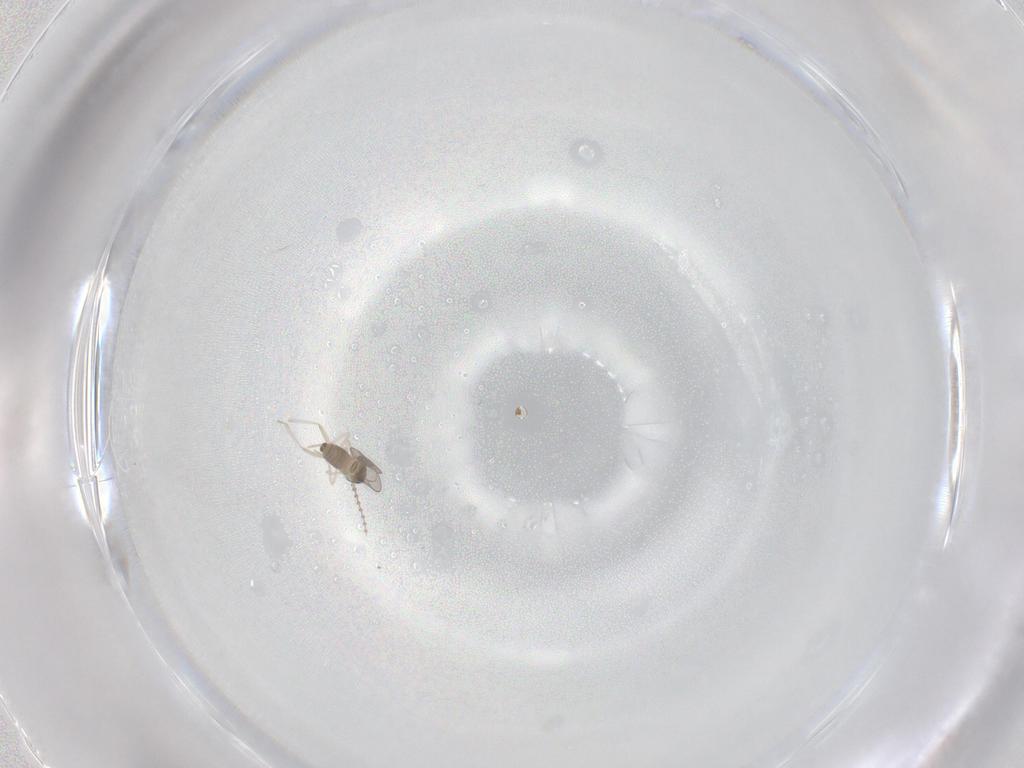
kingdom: Animalia
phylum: Arthropoda
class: Insecta
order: Diptera
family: Cecidomyiidae
